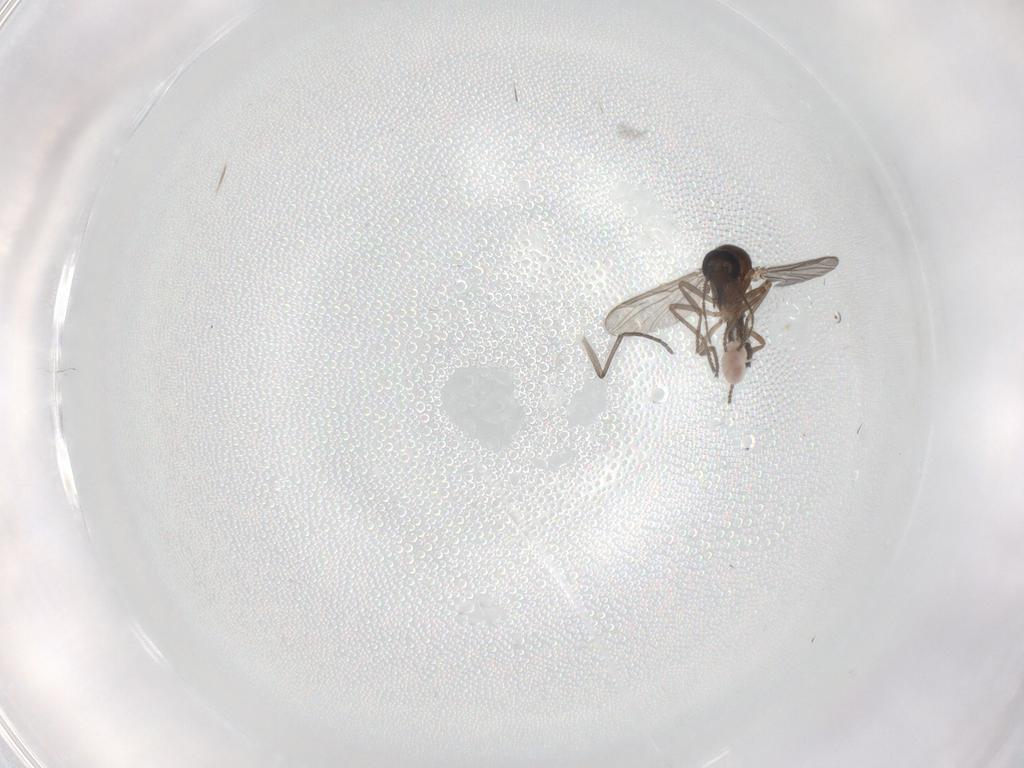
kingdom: Animalia
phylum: Arthropoda
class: Insecta
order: Diptera
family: Ceratopogonidae
